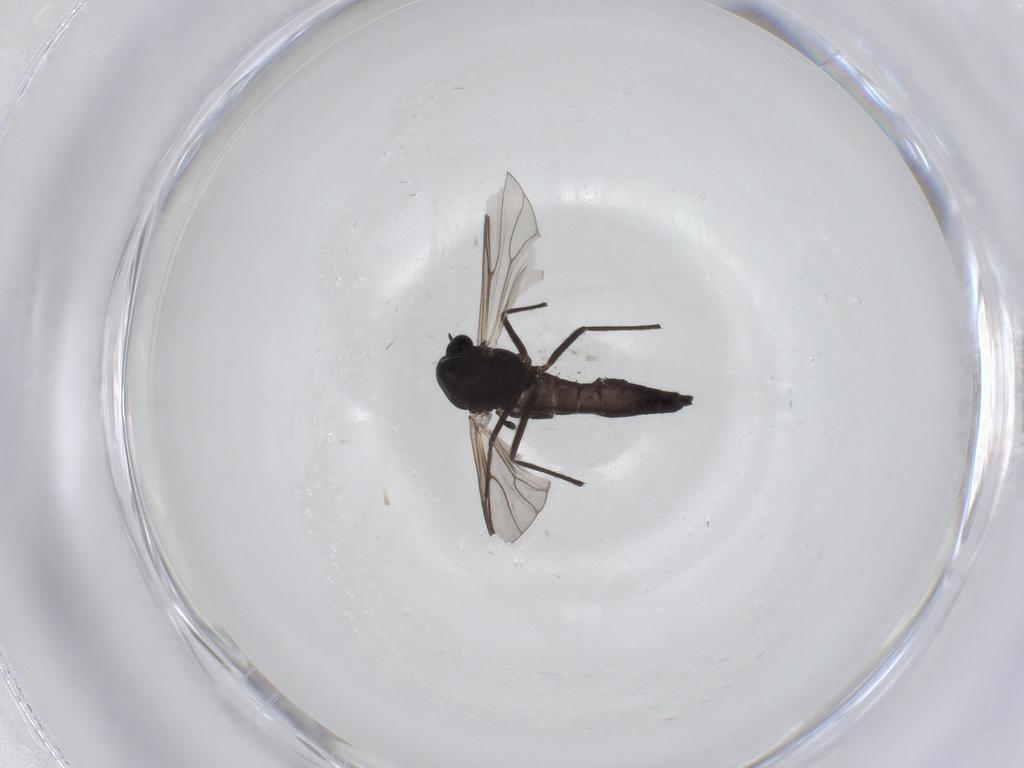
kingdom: Animalia
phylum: Arthropoda
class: Insecta
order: Diptera
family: Chironomidae
